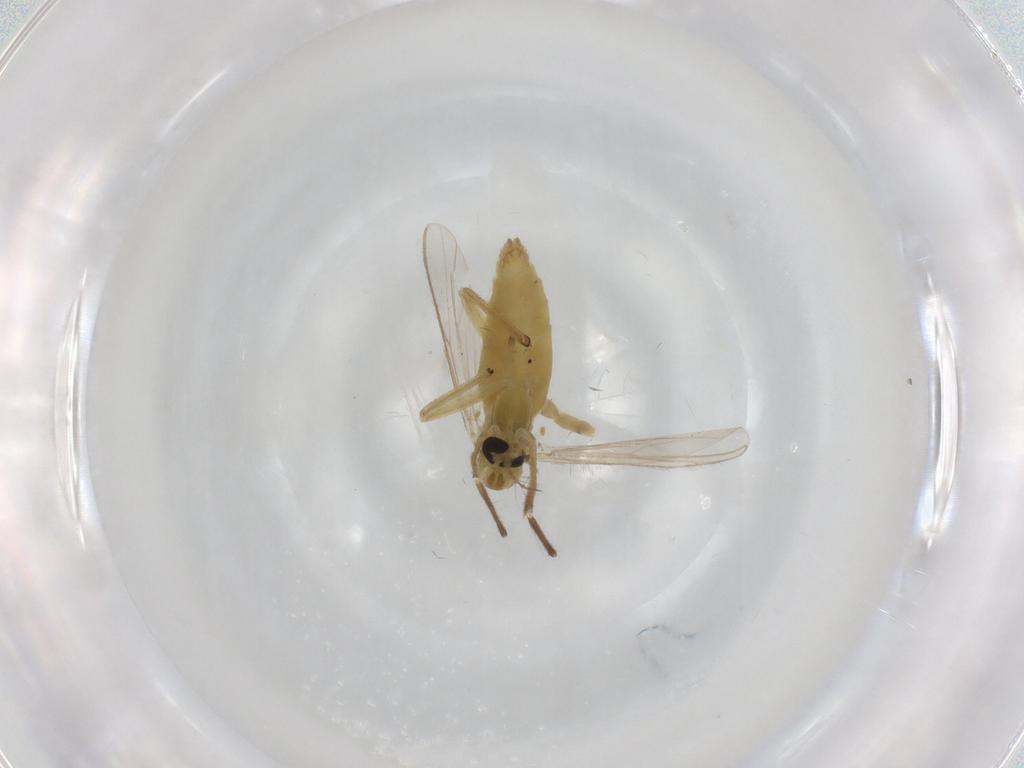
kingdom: Animalia
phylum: Arthropoda
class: Insecta
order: Diptera
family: Chironomidae
